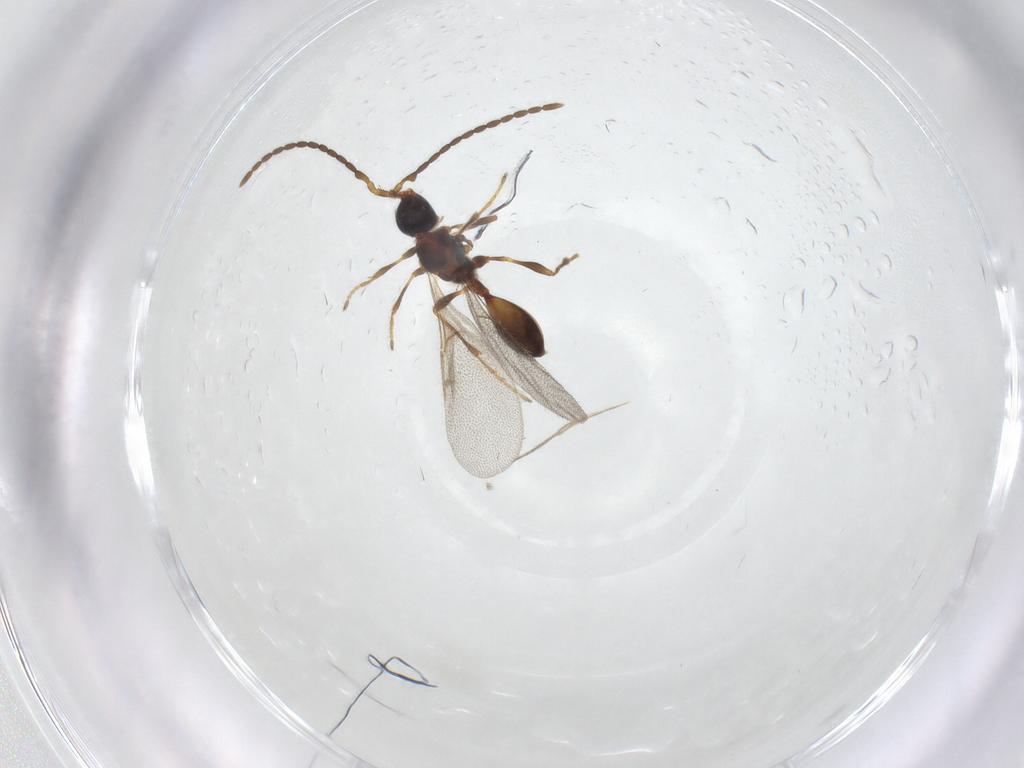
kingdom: Animalia
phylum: Arthropoda
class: Insecta
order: Hymenoptera
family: Diapriidae
